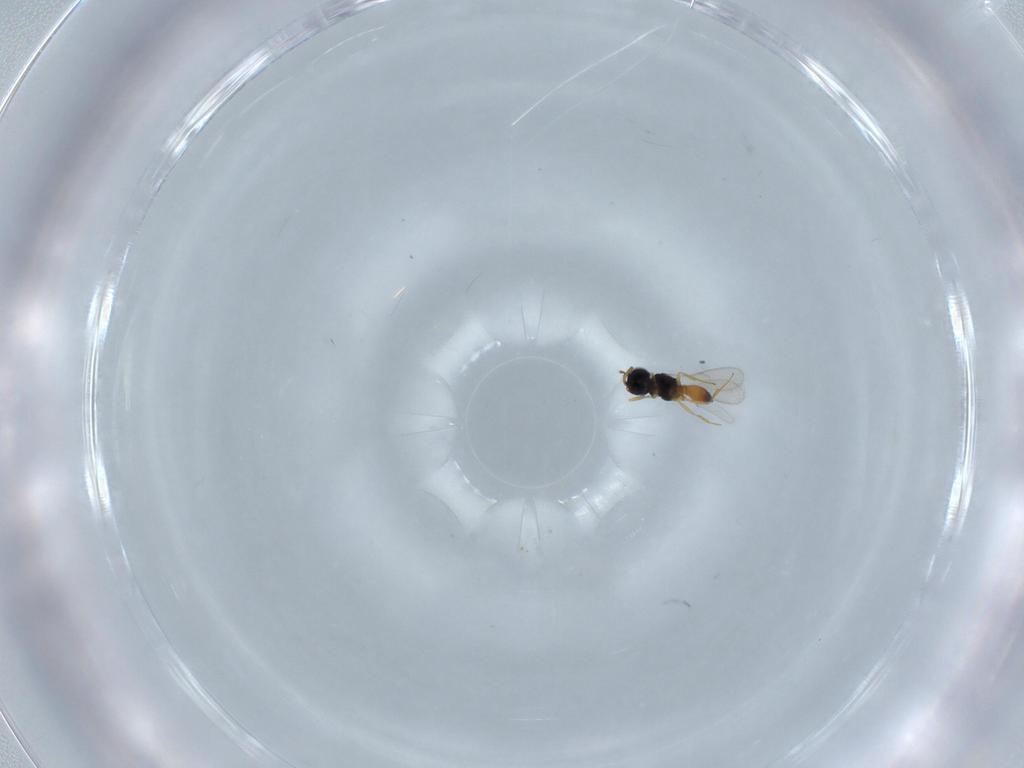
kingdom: Animalia
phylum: Arthropoda
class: Insecta
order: Hymenoptera
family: Scelionidae
